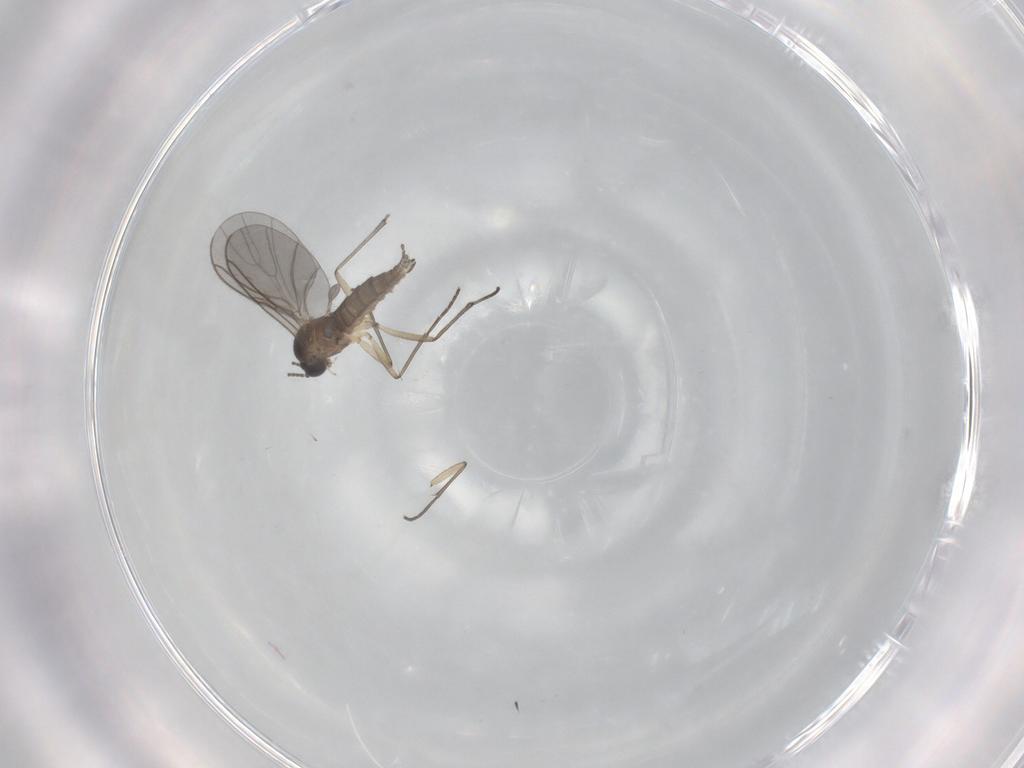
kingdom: Animalia
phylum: Arthropoda
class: Insecta
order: Diptera
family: Sciaridae
